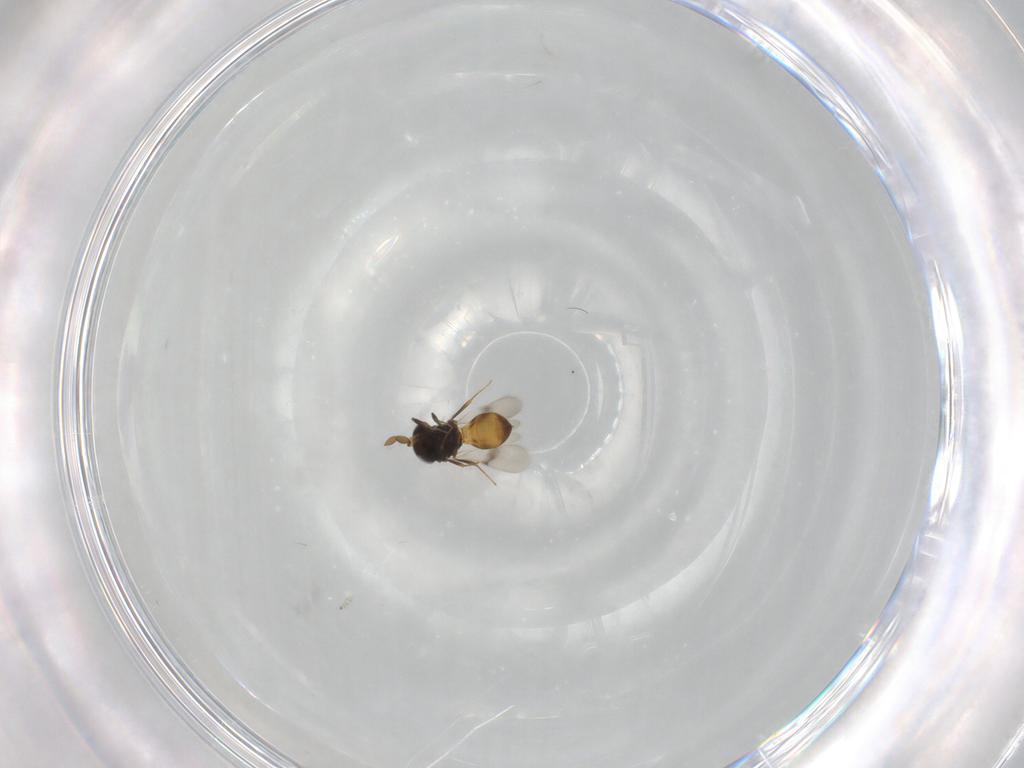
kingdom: Animalia
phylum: Arthropoda
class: Insecta
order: Hymenoptera
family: Scelionidae
